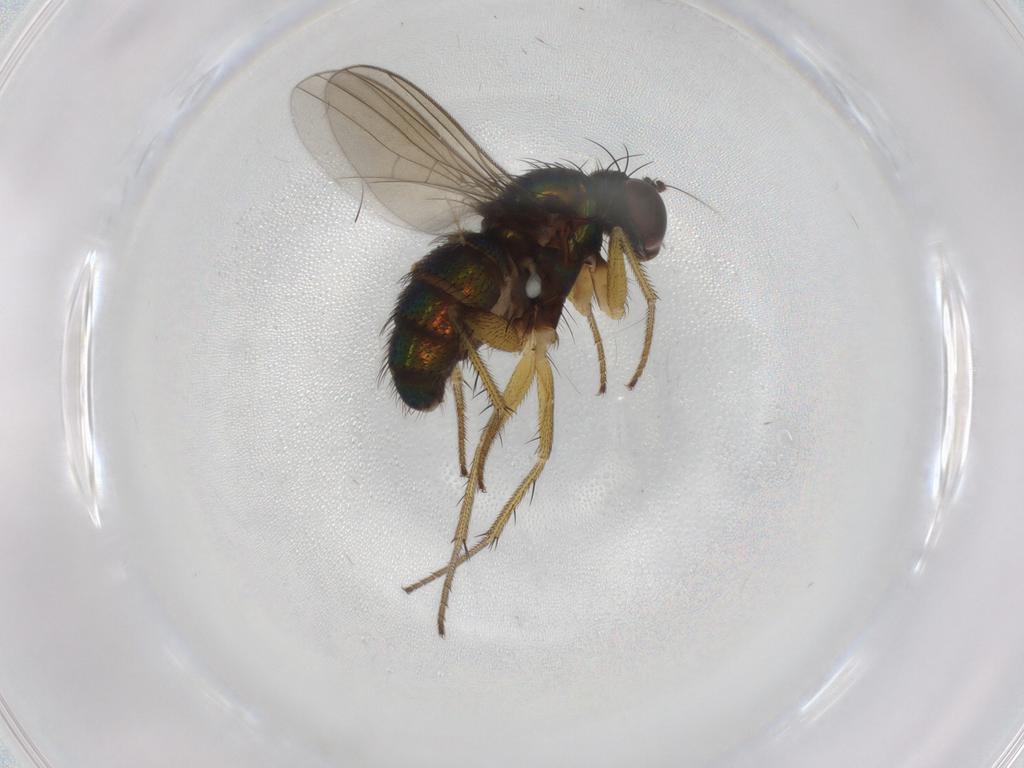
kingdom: Animalia
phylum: Arthropoda
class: Insecta
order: Diptera
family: Dolichopodidae
